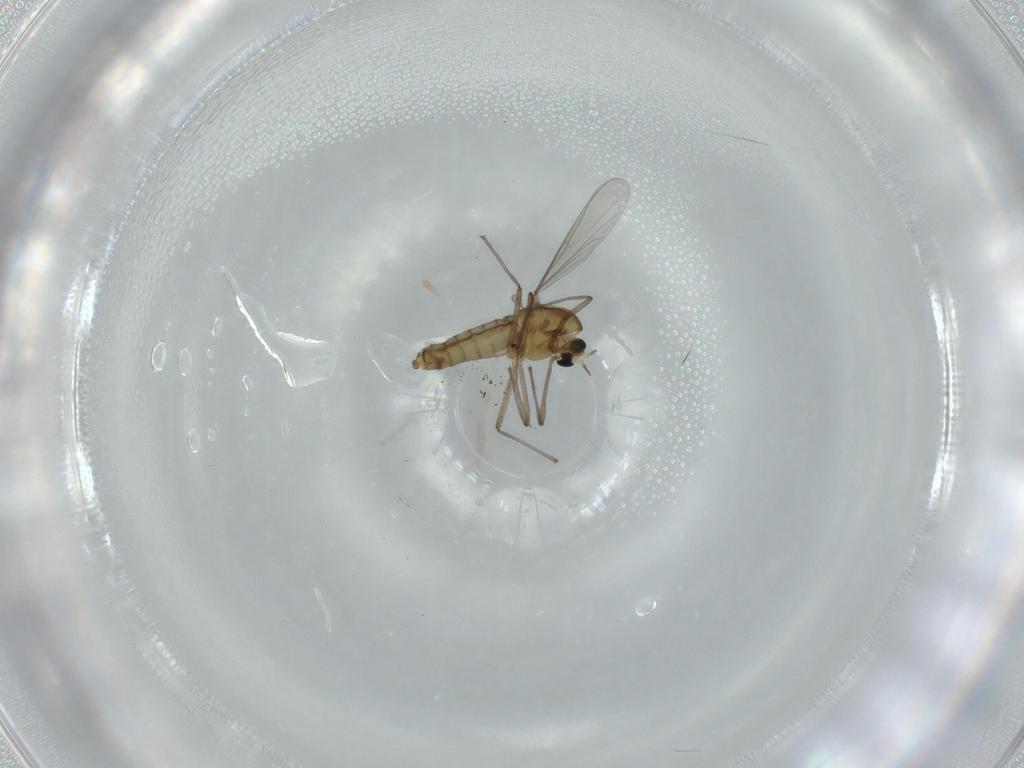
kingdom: Animalia
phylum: Arthropoda
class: Insecta
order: Diptera
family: Chironomidae
